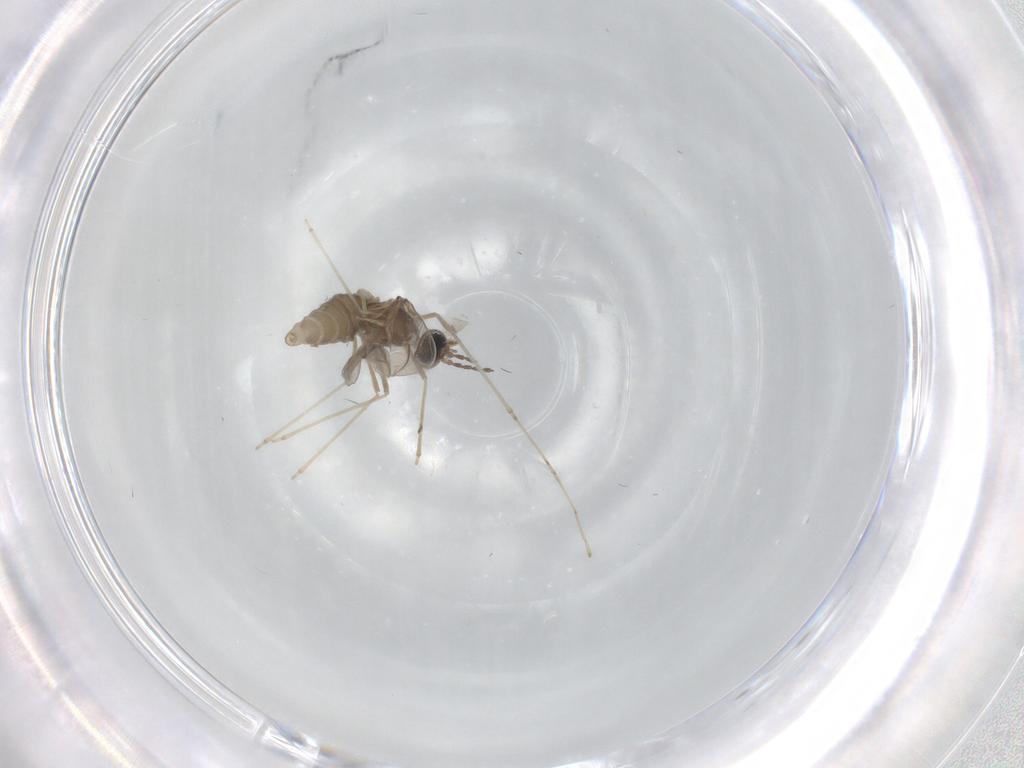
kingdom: Animalia
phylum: Arthropoda
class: Insecta
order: Diptera
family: Cecidomyiidae
